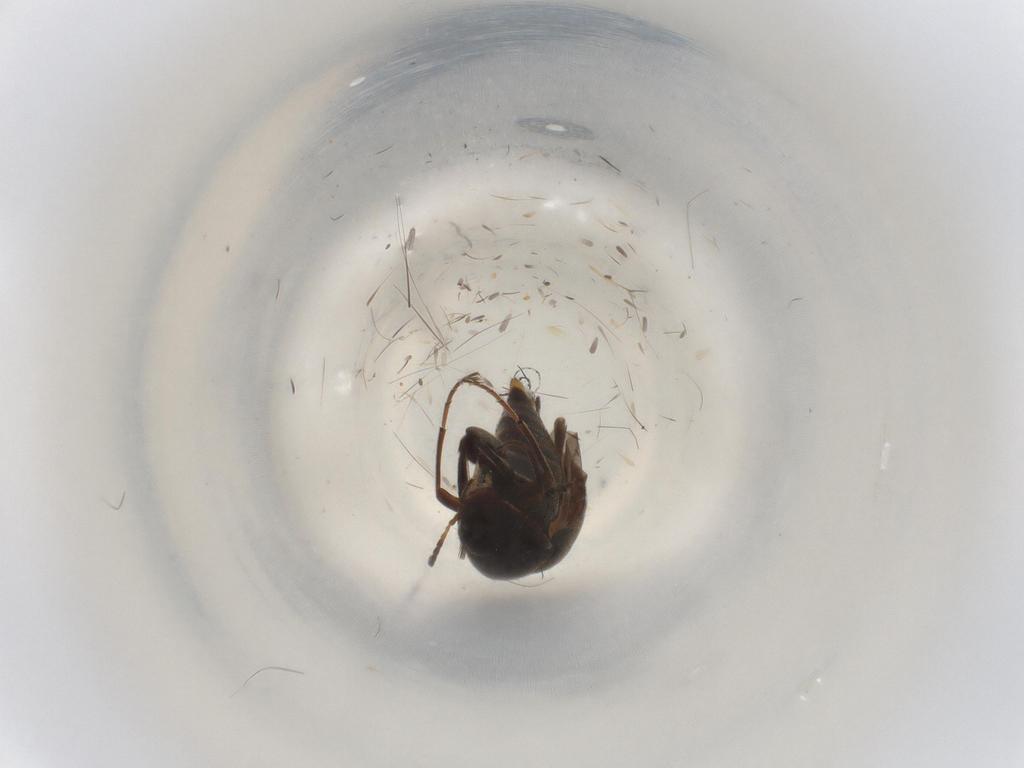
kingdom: Animalia
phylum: Arthropoda
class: Insecta
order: Coleoptera
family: Mordellidae
